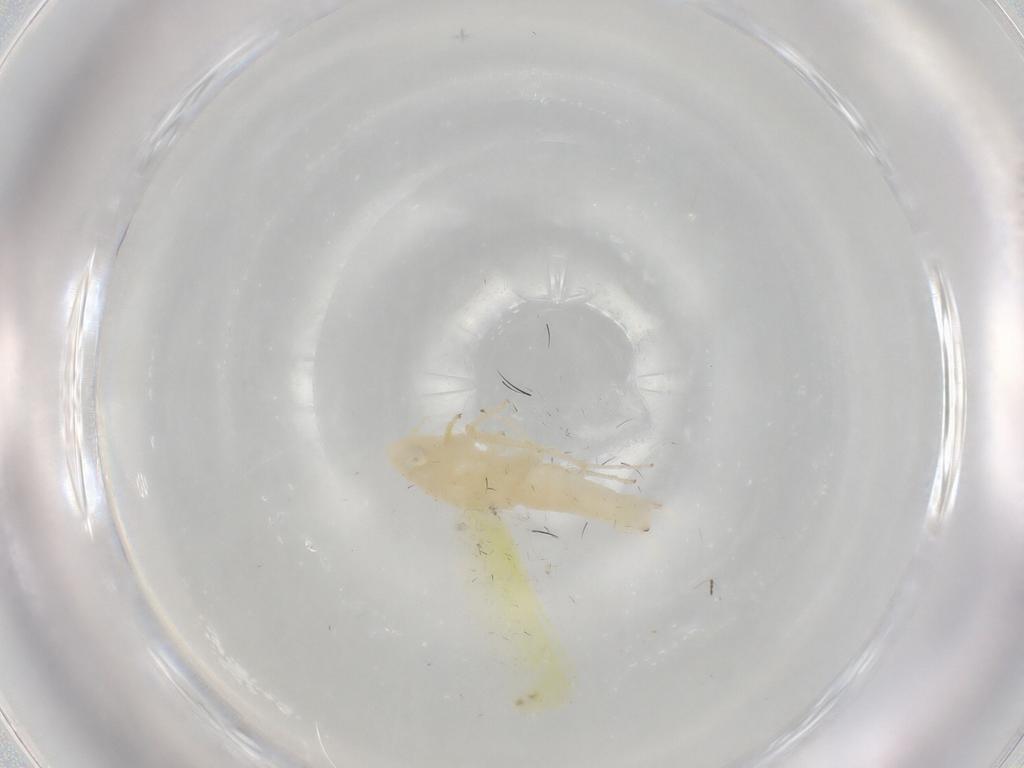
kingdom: Animalia
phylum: Arthropoda
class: Insecta
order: Hemiptera
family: Cicadellidae
